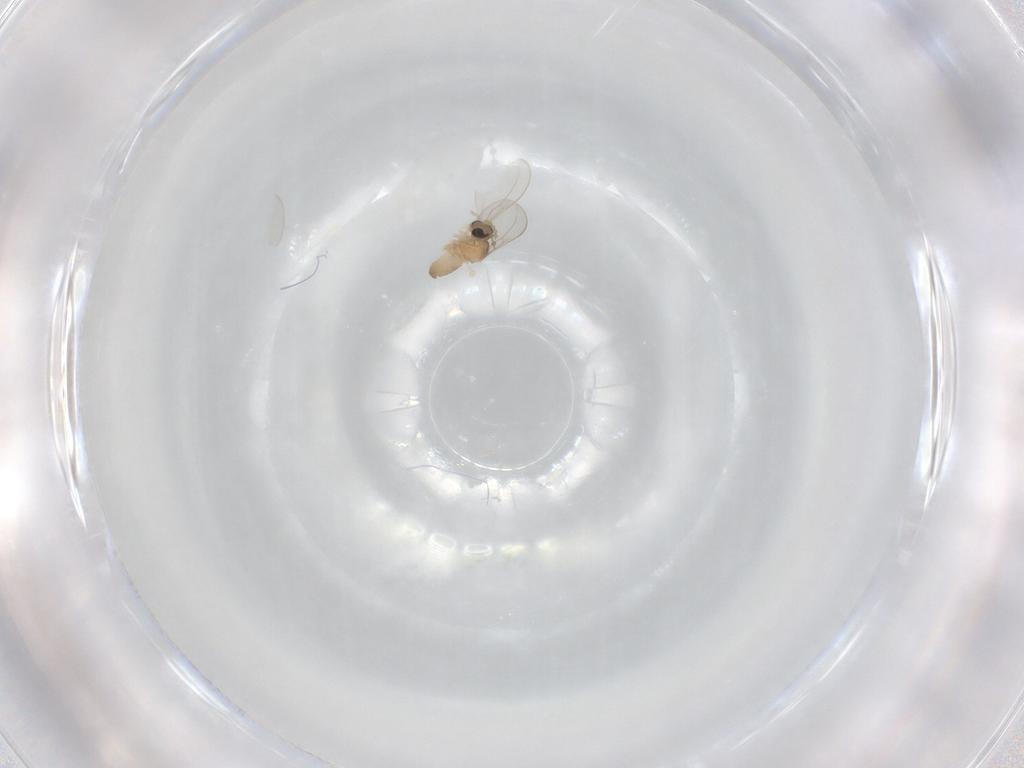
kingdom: Animalia
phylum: Arthropoda
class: Insecta
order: Diptera
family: Cecidomyiidae
